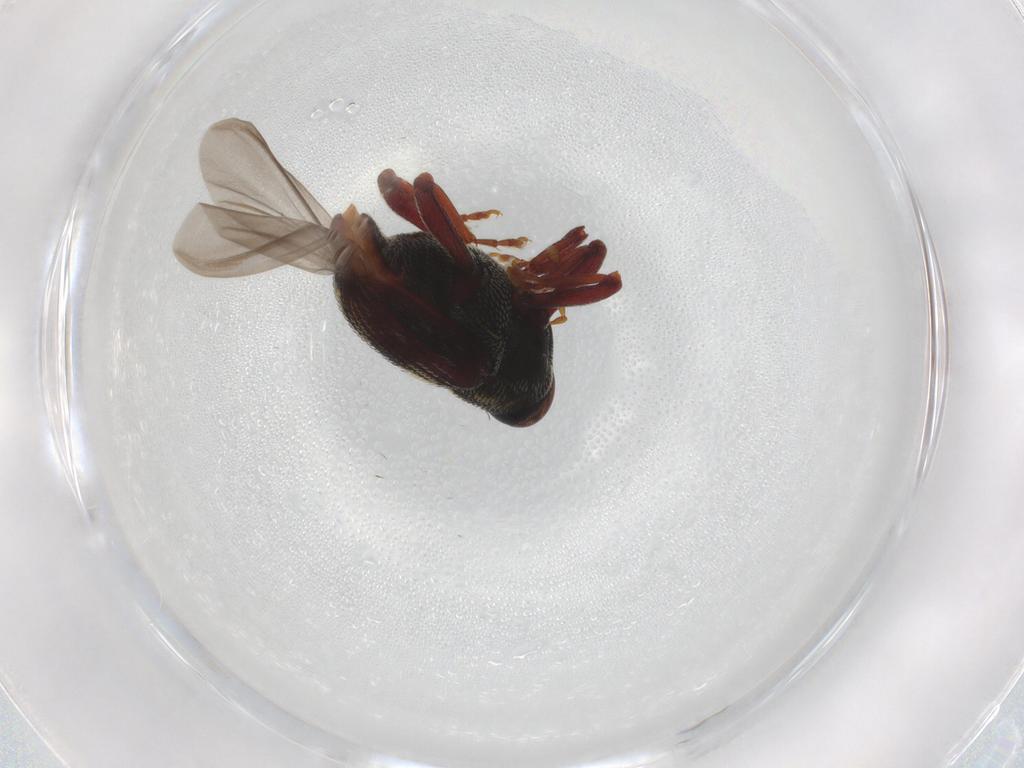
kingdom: Animalia
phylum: Arthropoda
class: Insecta
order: Coleoptera
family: Curculionidae
